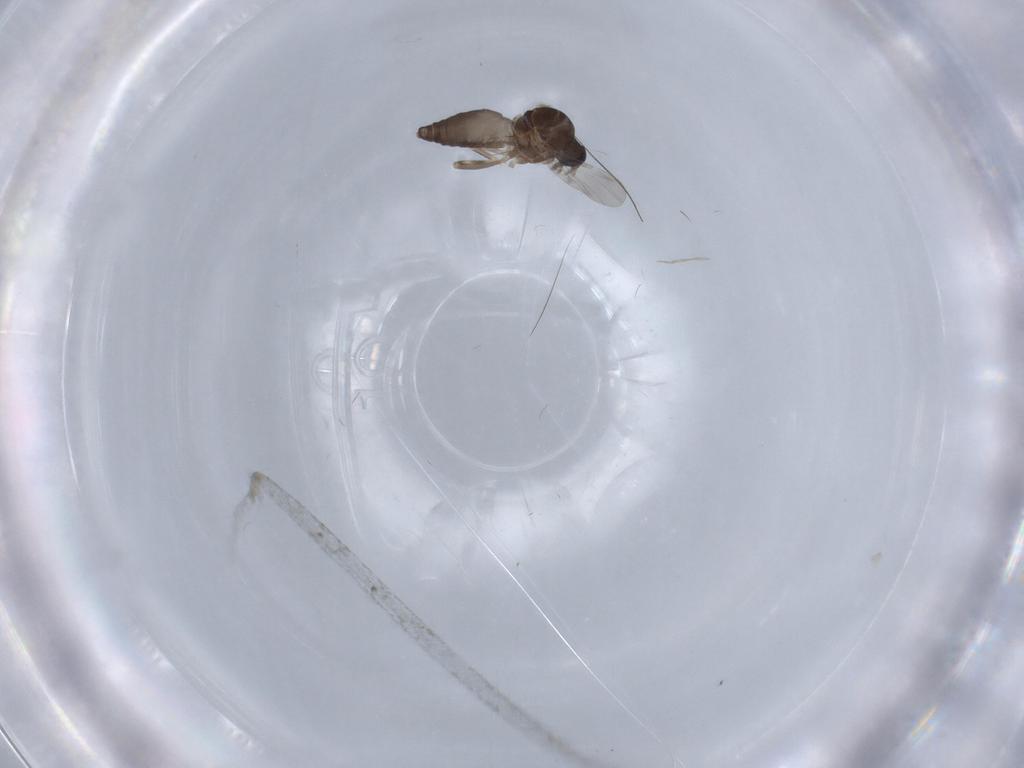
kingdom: Animalia
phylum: Arthropoda
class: Insecta
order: Diptera
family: Ceratopogonidae
